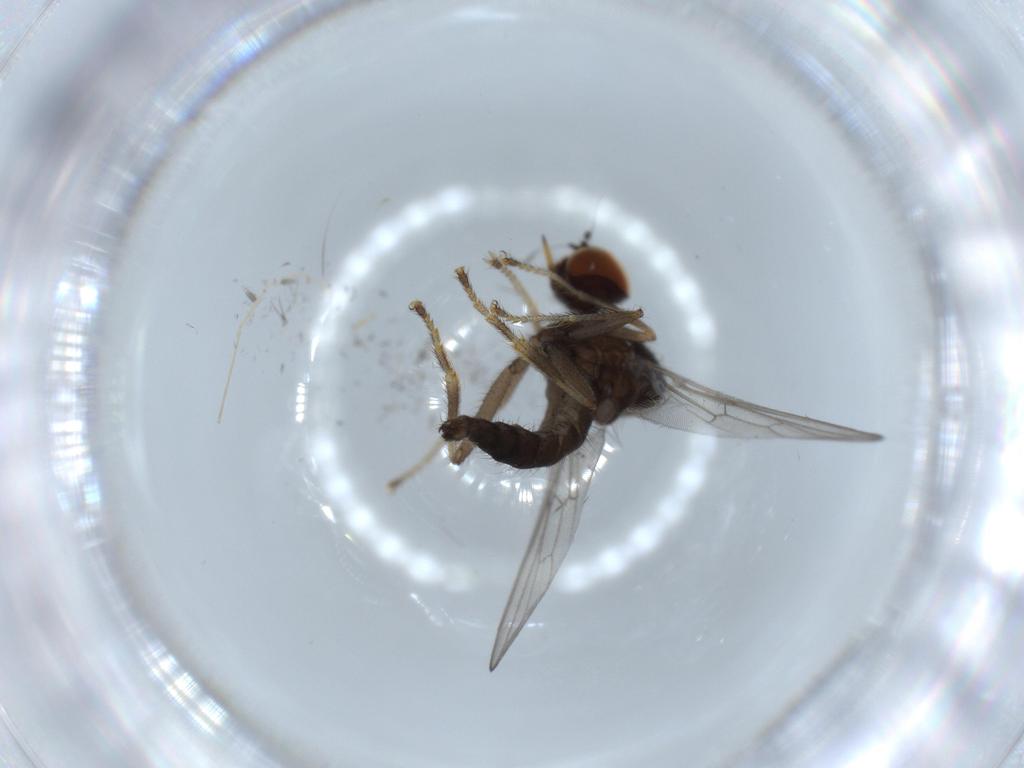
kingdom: Animalia
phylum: Arthropoda
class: Insecta
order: Diptera
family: Hybotidae
